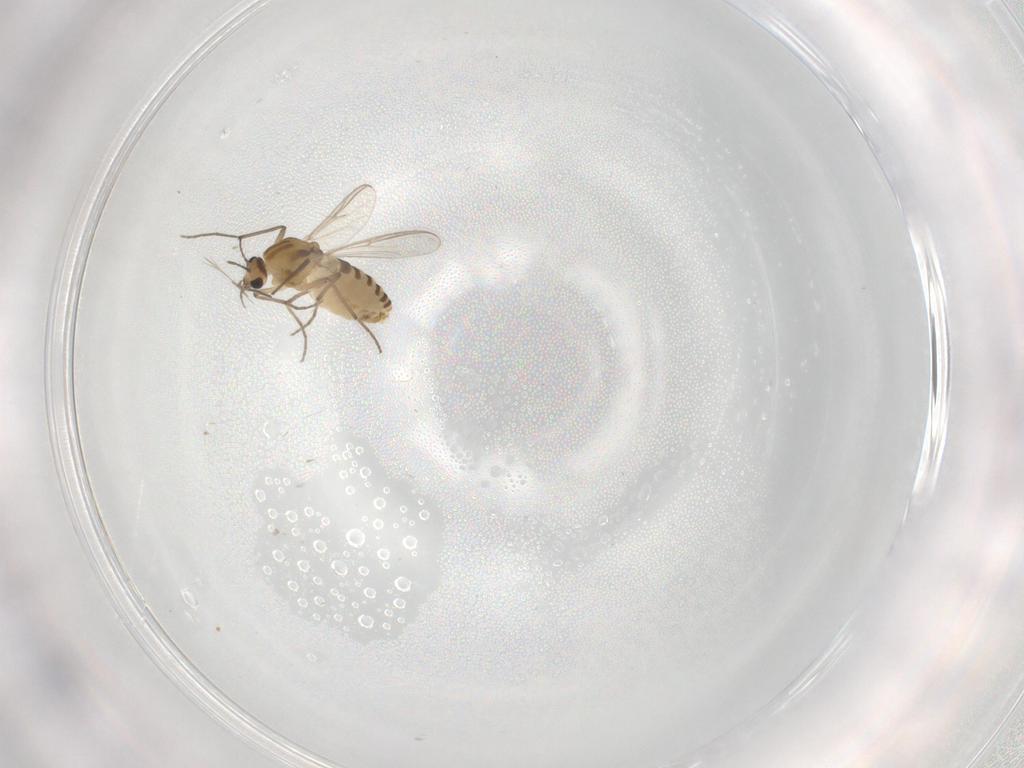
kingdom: Animalia
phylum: Arthropoda
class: Insecta
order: Diptera
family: Chironomidae
